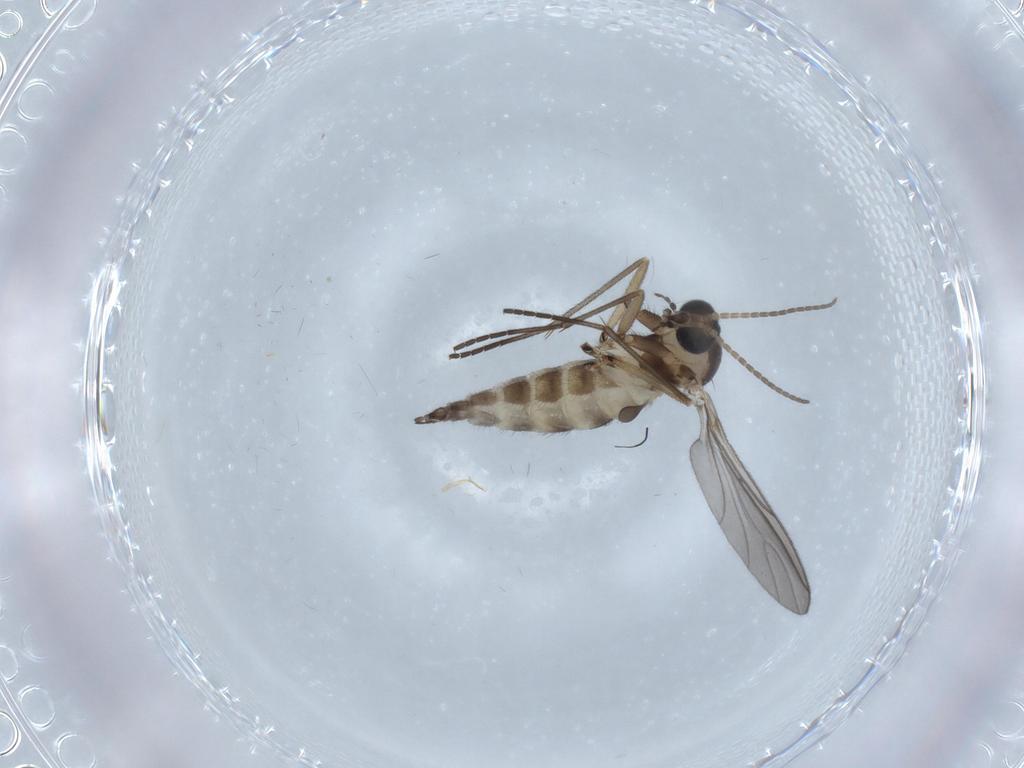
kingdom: Animalia
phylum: Arthropoda
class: Insecta
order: Diptera
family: Sciaridae
